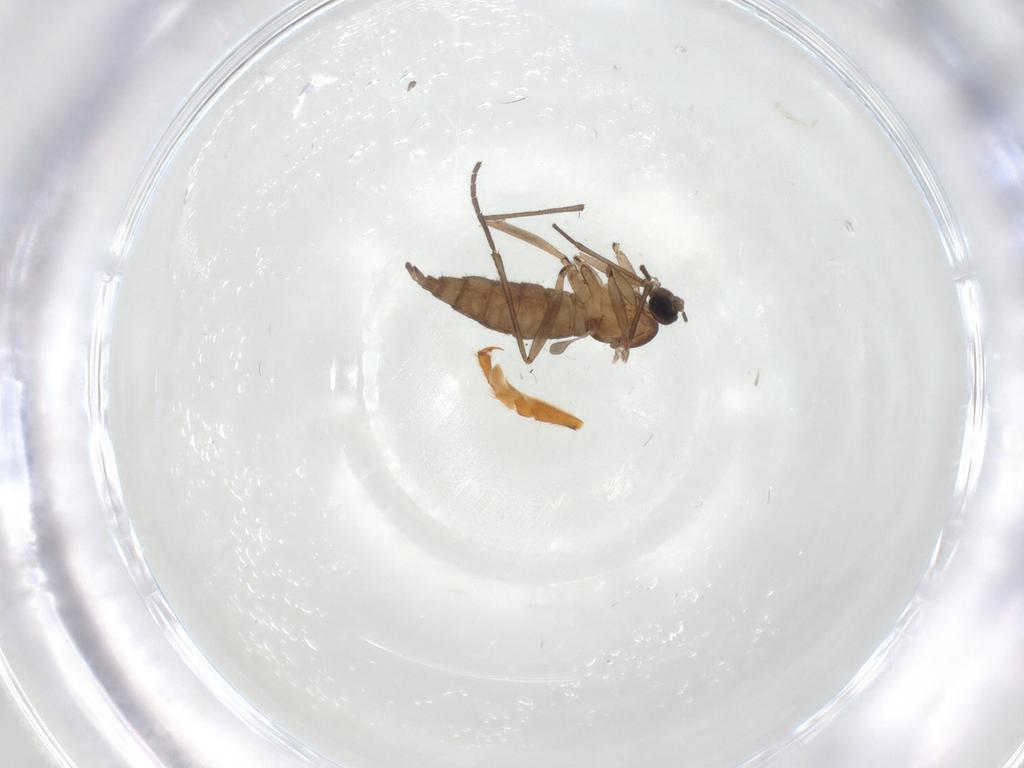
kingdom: Animalia
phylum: Arthropoda
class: Insecta
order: Diptera
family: Sciaridae
